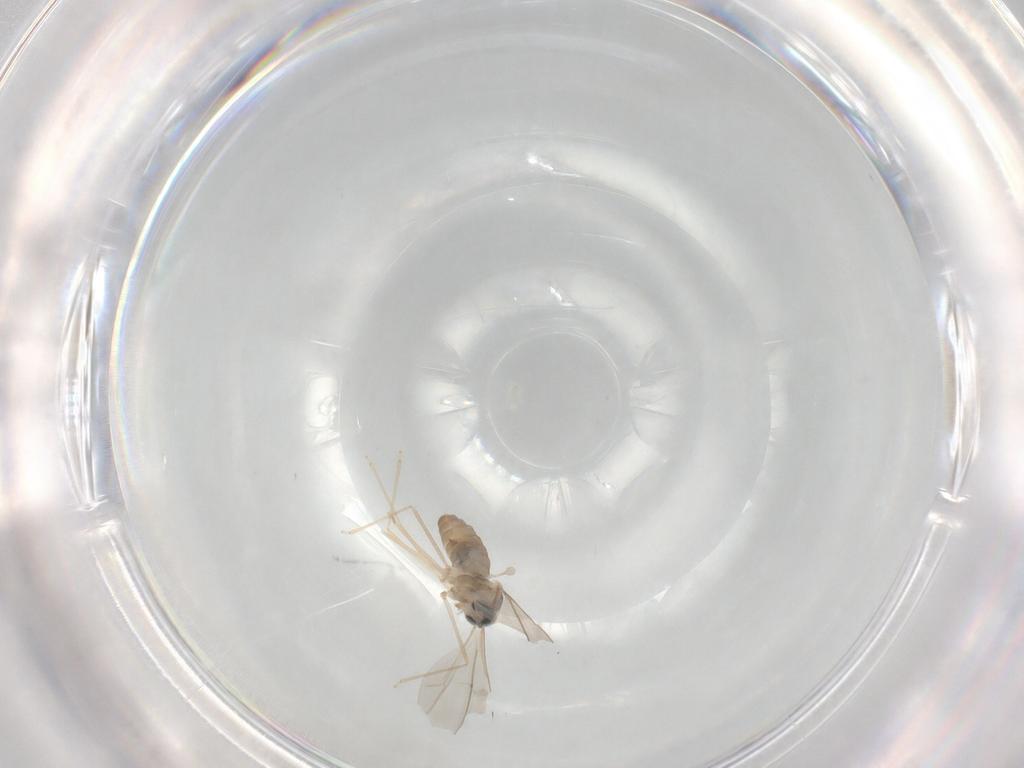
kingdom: Animalia
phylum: Arthropoda
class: Insecta
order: Diptera
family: Cecidomyiidae
